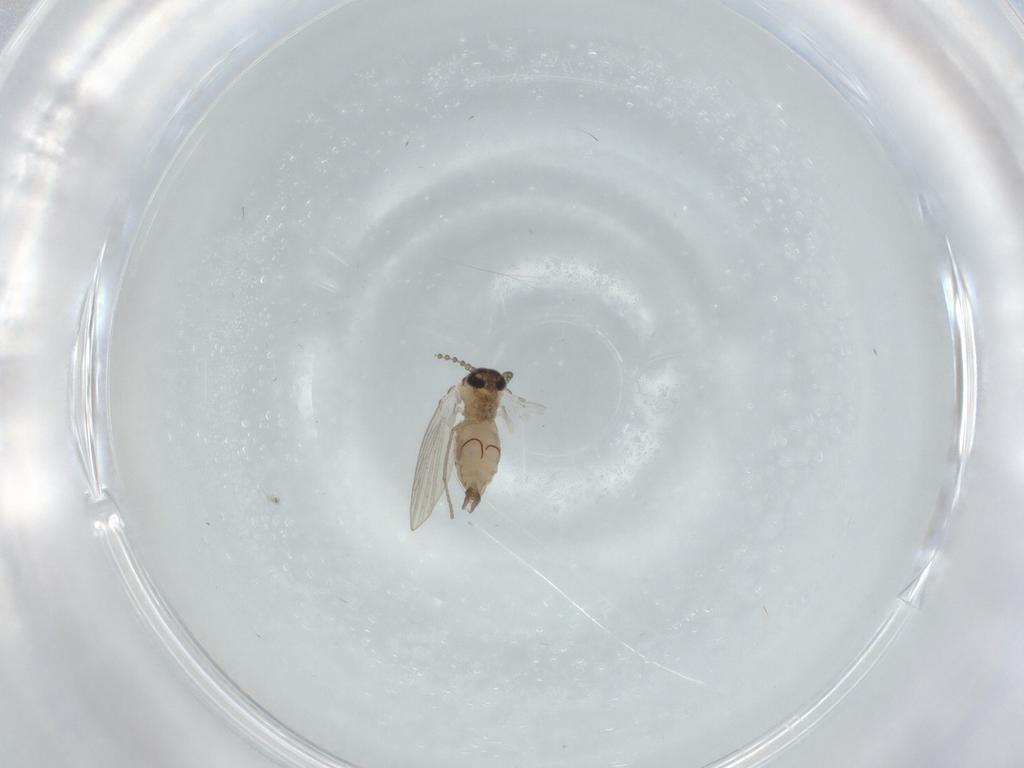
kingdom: Animalia
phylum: Arthropoda
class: Insecta
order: Diptera
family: Psychodidae
